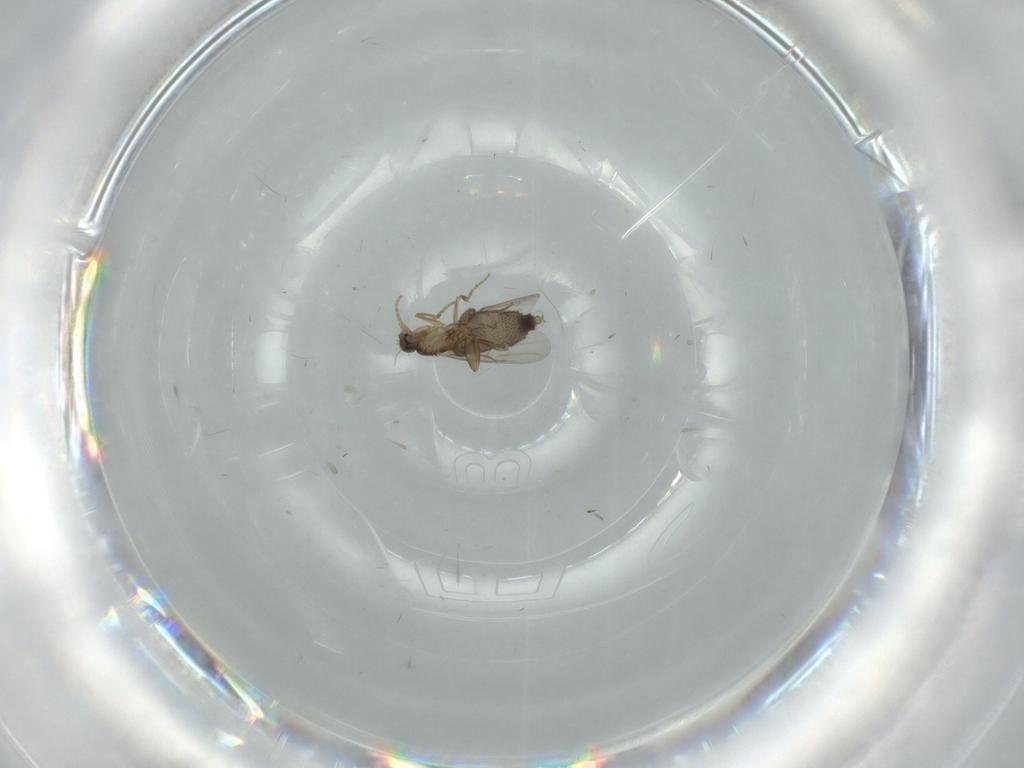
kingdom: Animalia
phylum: Arthropoda
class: Insecta
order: Diptera
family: Phoridae
